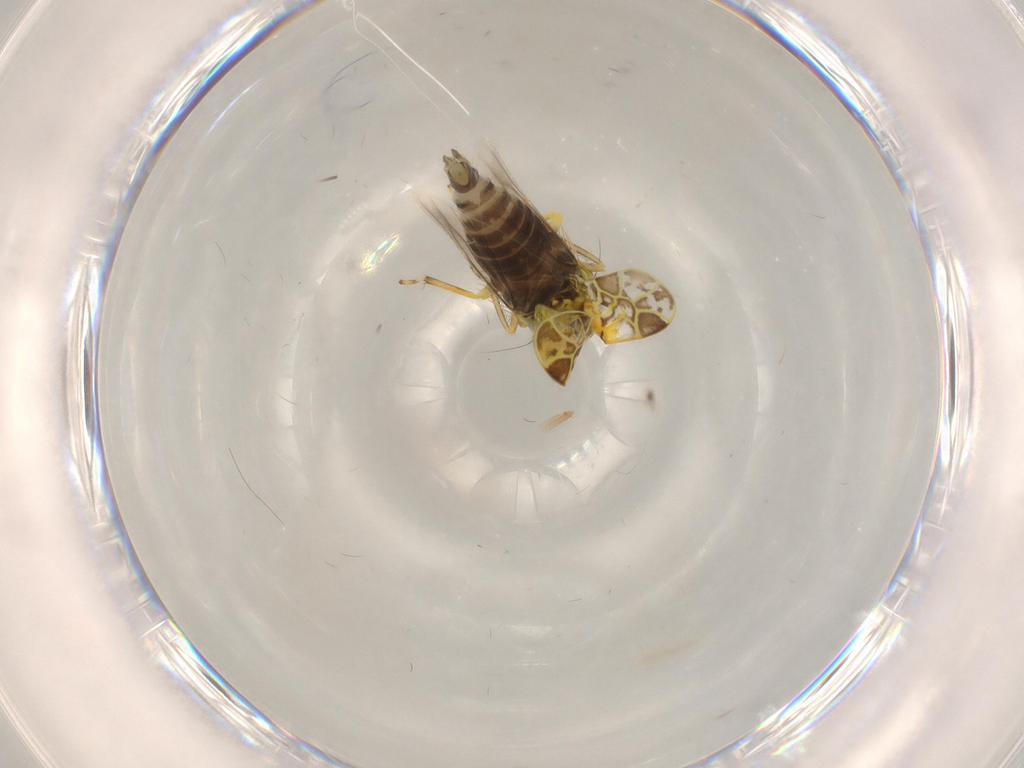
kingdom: Animalia
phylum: Arthropoda
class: Insecta
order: Hemiptera
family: Cicadellidae
